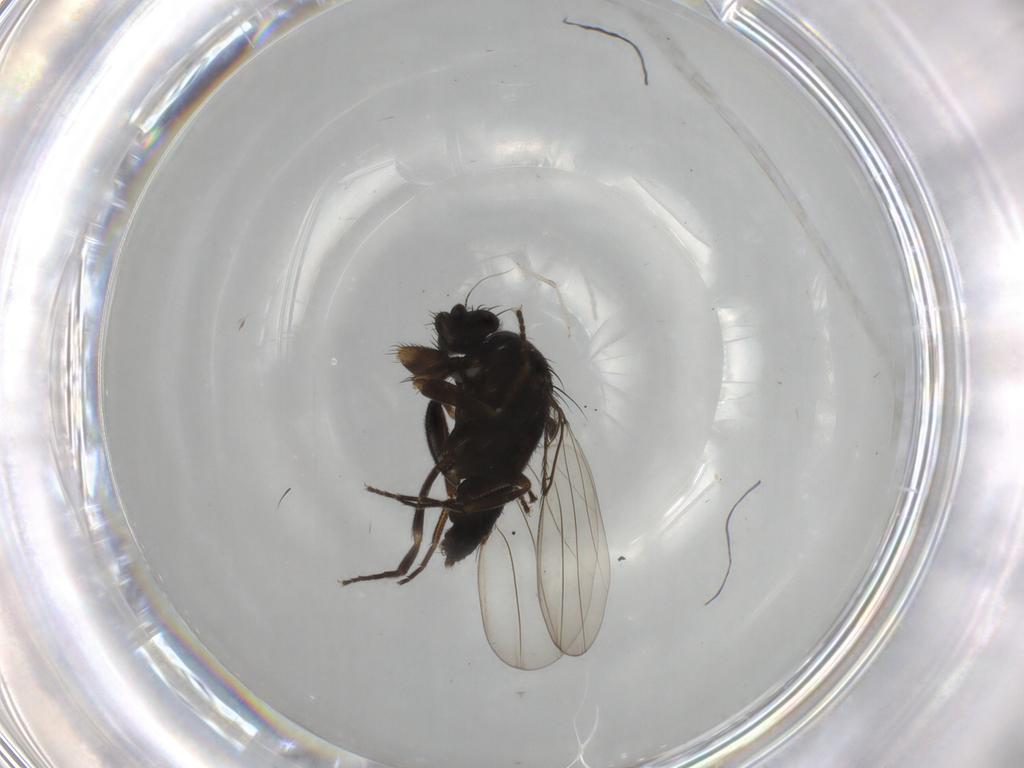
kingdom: Animalia
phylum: Arthropoda
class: Insecta
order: Diptera
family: Phoridae
